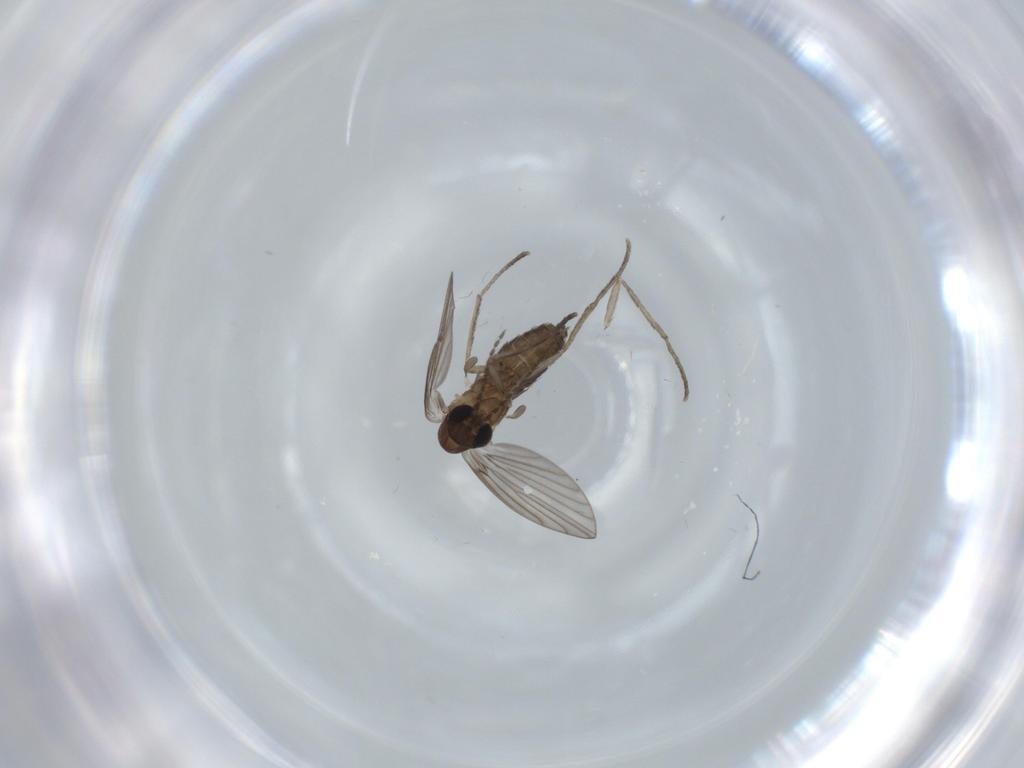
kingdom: Animalia
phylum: Arthropoda
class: Insecta
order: Diptera
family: Psychodidae
